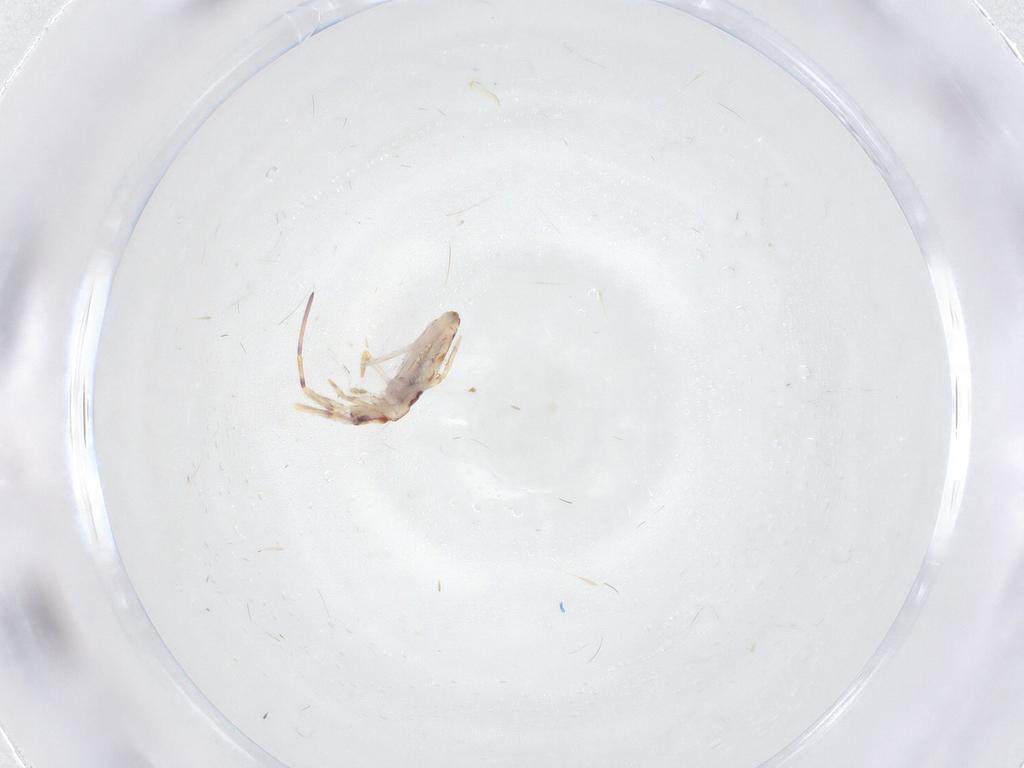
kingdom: Animalia
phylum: Arthropoda
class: Collembola
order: Entomobryomorpha
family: Entomobryidae
